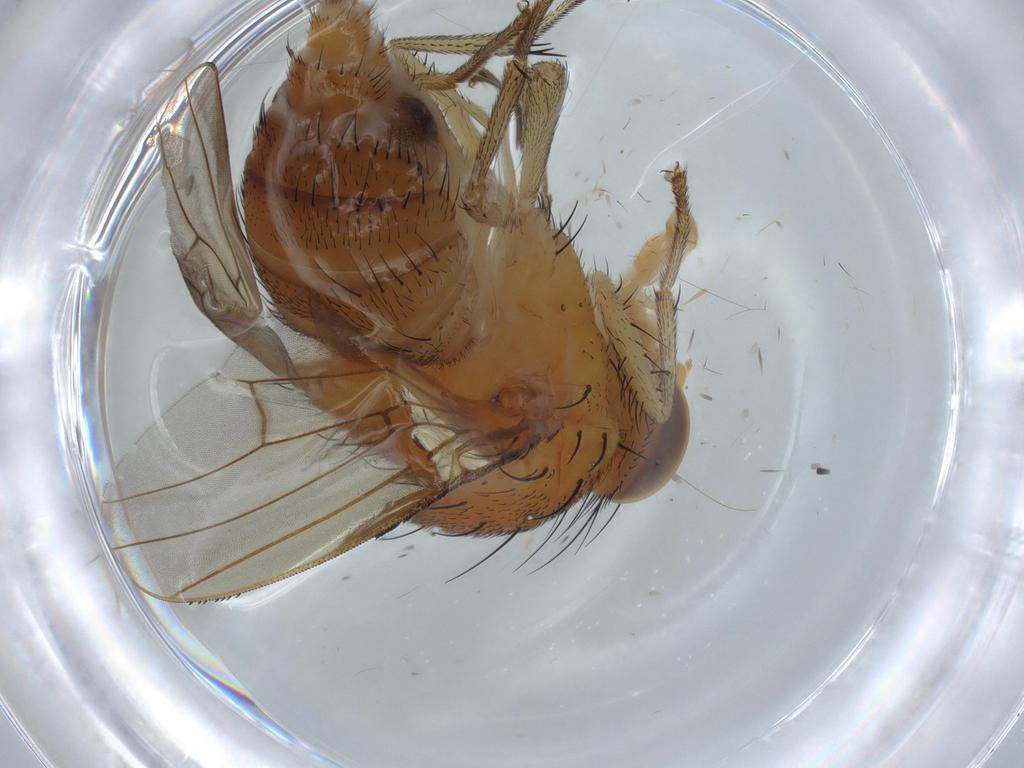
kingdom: Animalia
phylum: Arthropoda
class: Insecta
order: Diptera
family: Chironomidae
